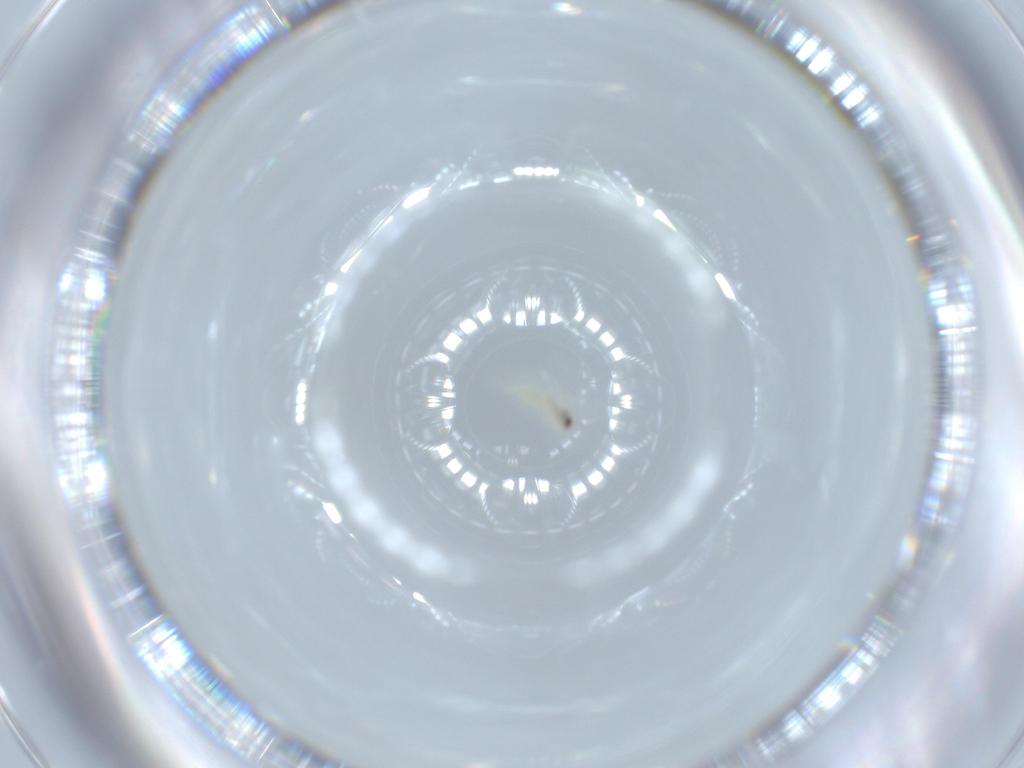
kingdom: Animalia
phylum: Arthropoda
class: Insecta
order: Hemiptera
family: Aleyrodidae
